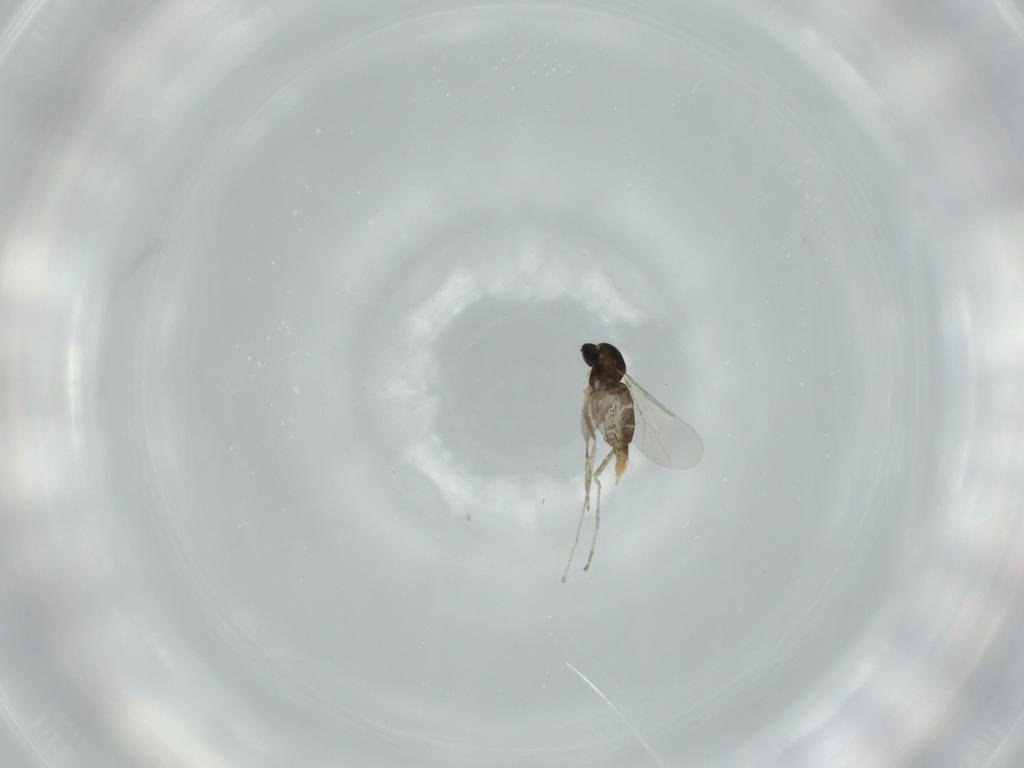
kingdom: Animalia
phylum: Arthropoda
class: Insecta
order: Diptera
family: Cecidomyiidae
